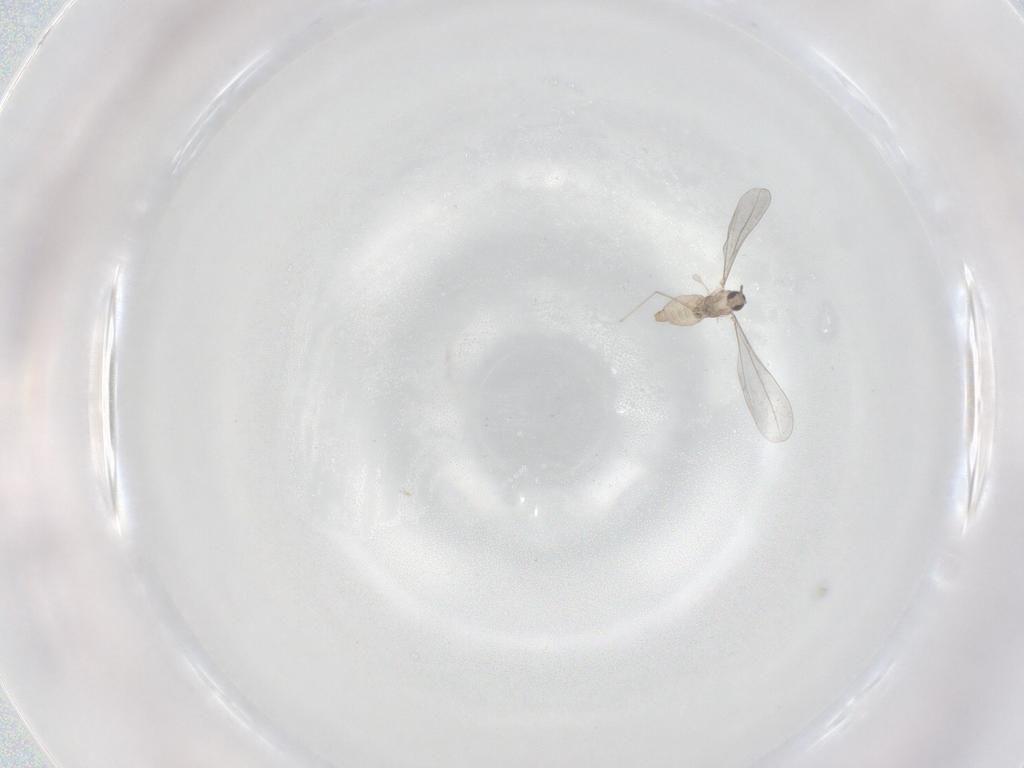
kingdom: Animalia
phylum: Arthropoda
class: Insecta
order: Diptera
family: Cecidomyiidae
